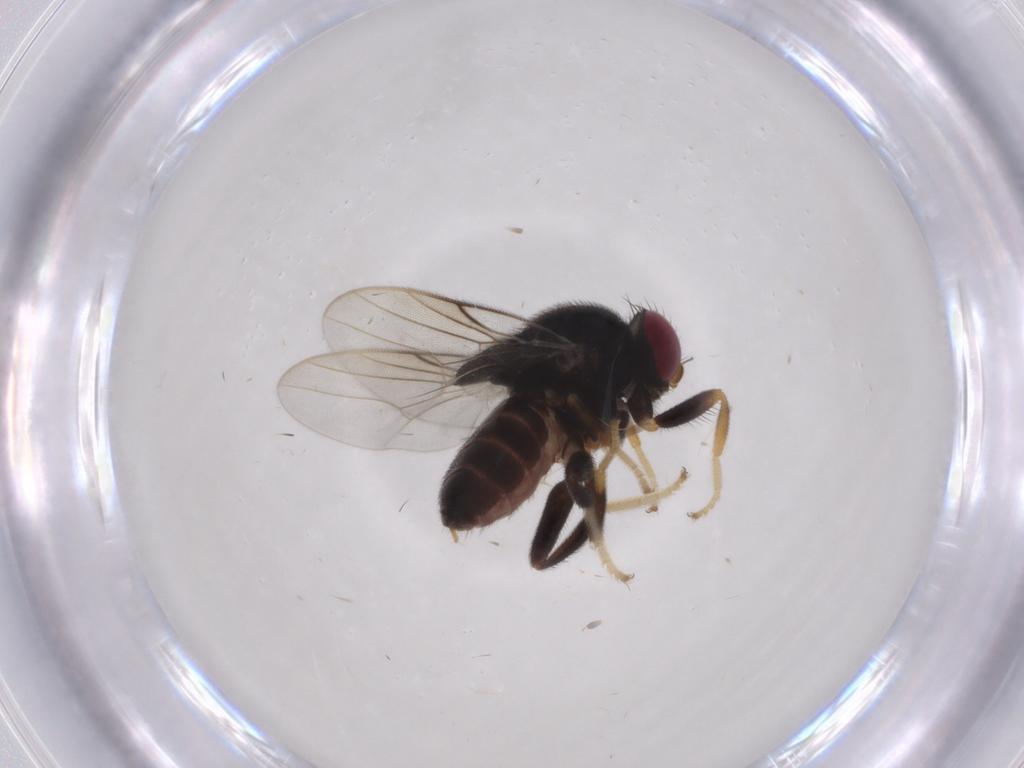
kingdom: Animalia
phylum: Arthropoda
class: Insecta
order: Diptera
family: Chloropidae
